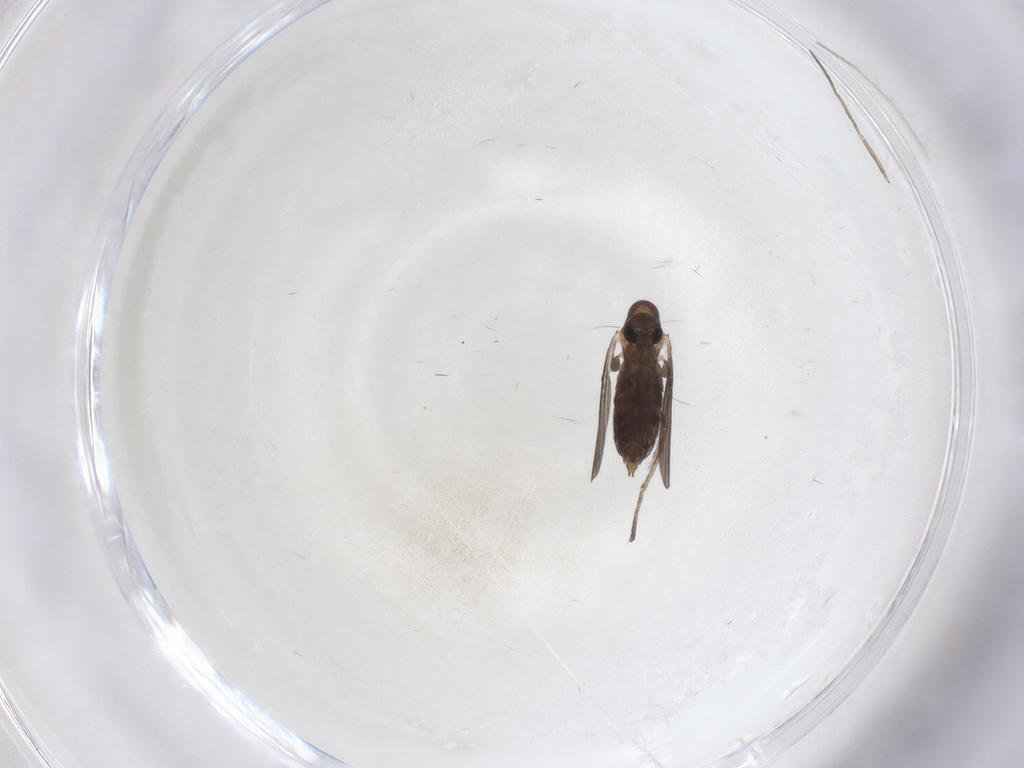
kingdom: Animalia
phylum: Arthropoda
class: Insecta
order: Diptera
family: Psychodidae
